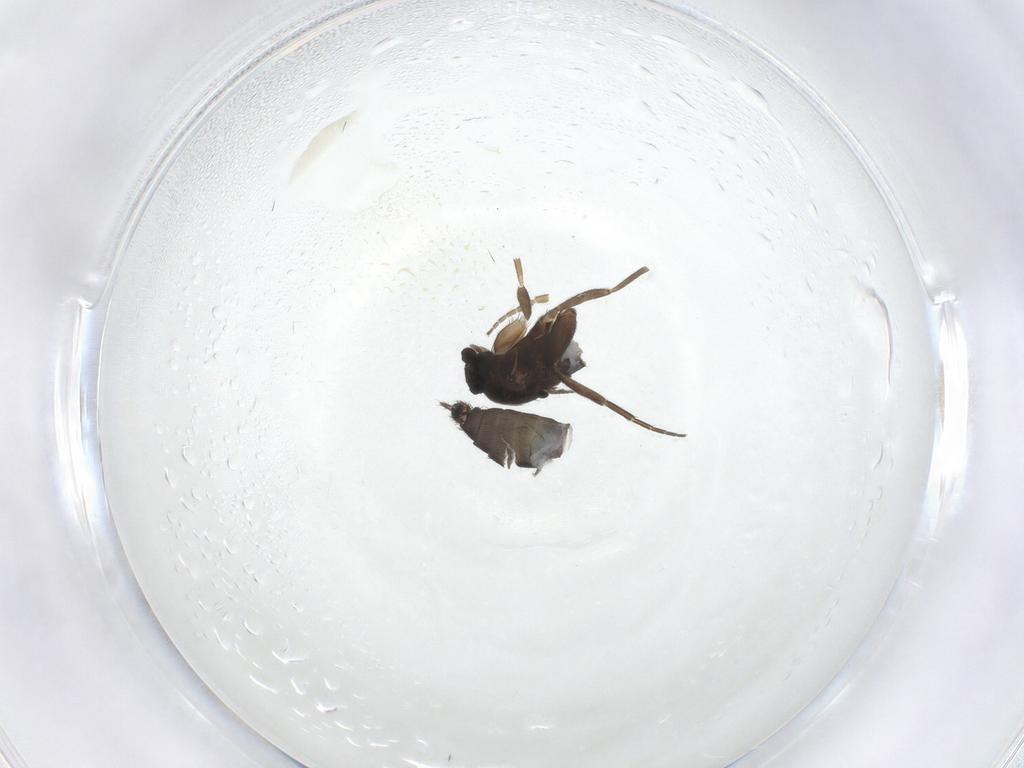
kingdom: Animalia
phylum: Arthropoda
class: Insecta
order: Diptera
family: Phoridae
